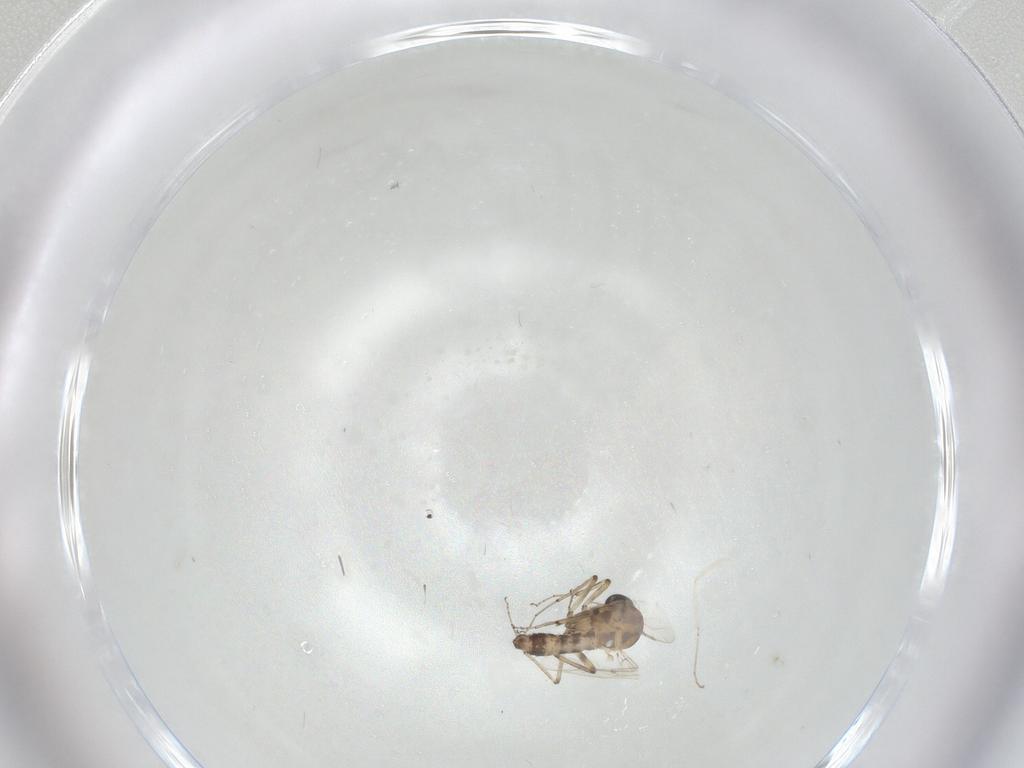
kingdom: Animalia
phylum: Arthropoda
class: Insecta
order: Diptera
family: Ceratopogonidae
